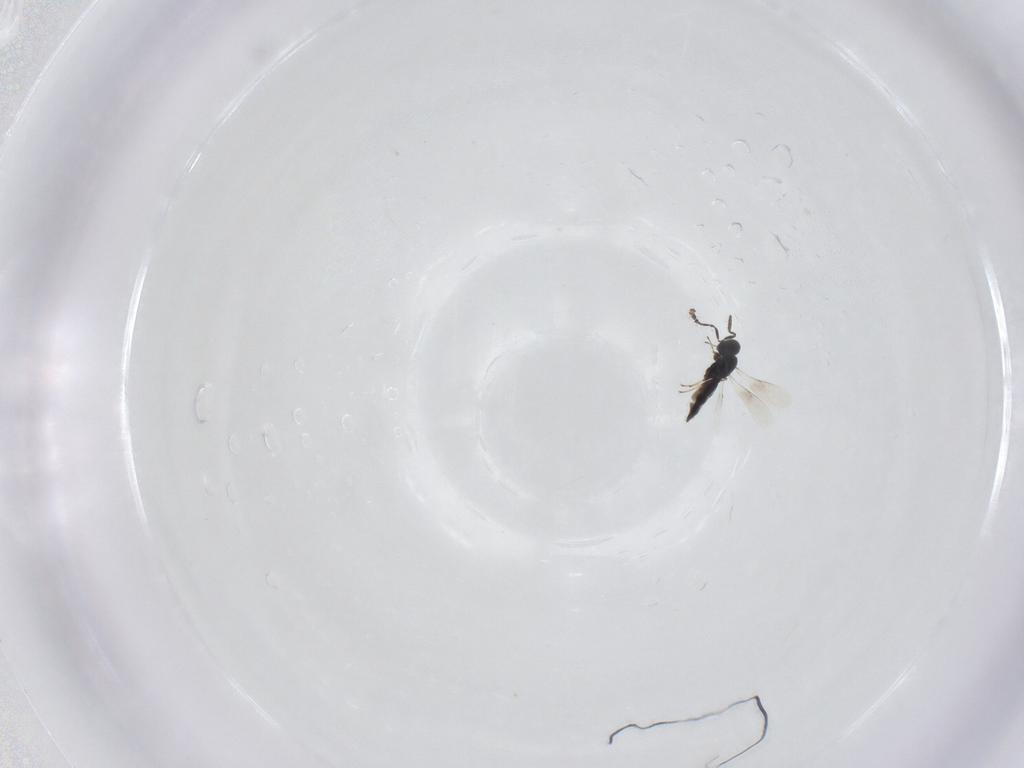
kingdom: Animalia
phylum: Arthropoda
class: Insecta
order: Hymenoptera
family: Scelionidae
